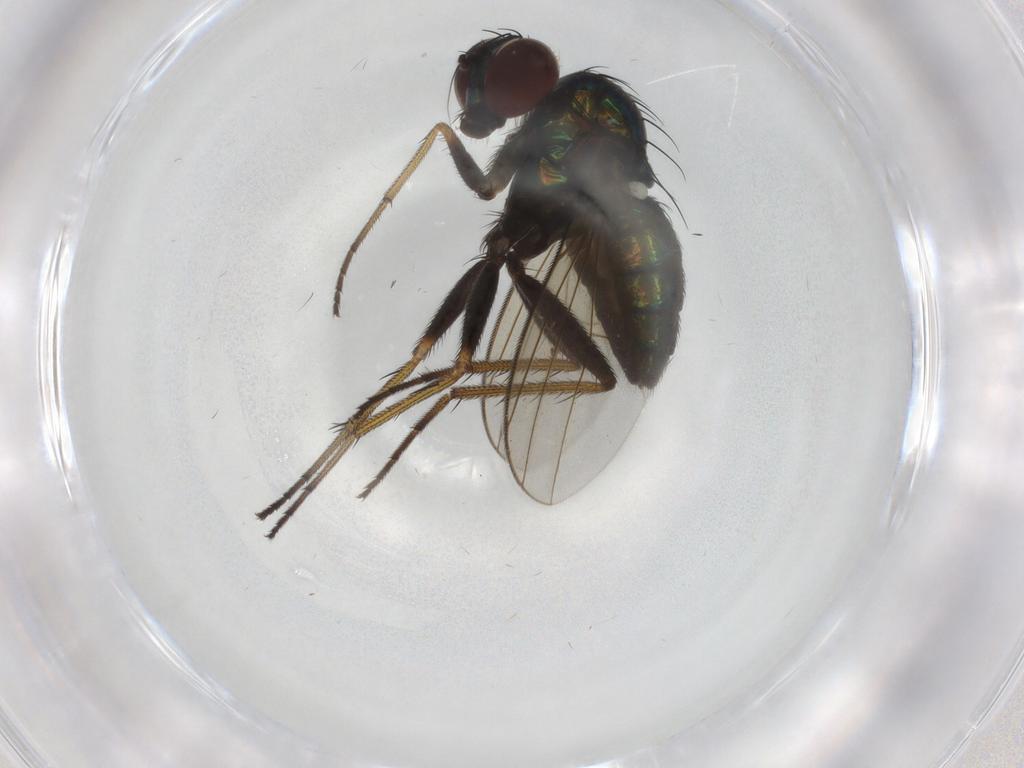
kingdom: Animalia
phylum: Arthropoda
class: Insecta
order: Diptera
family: Dolichopodidae
